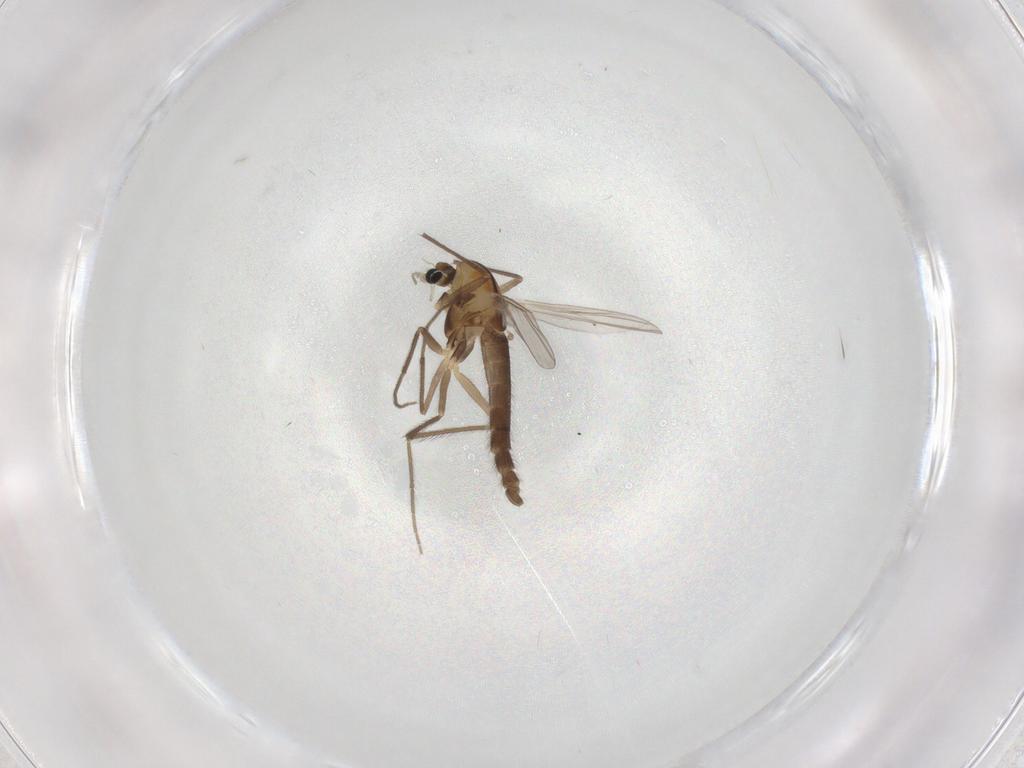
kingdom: Animalia
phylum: Arthropoda
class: Insecta
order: Diptera
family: Chironomidae
